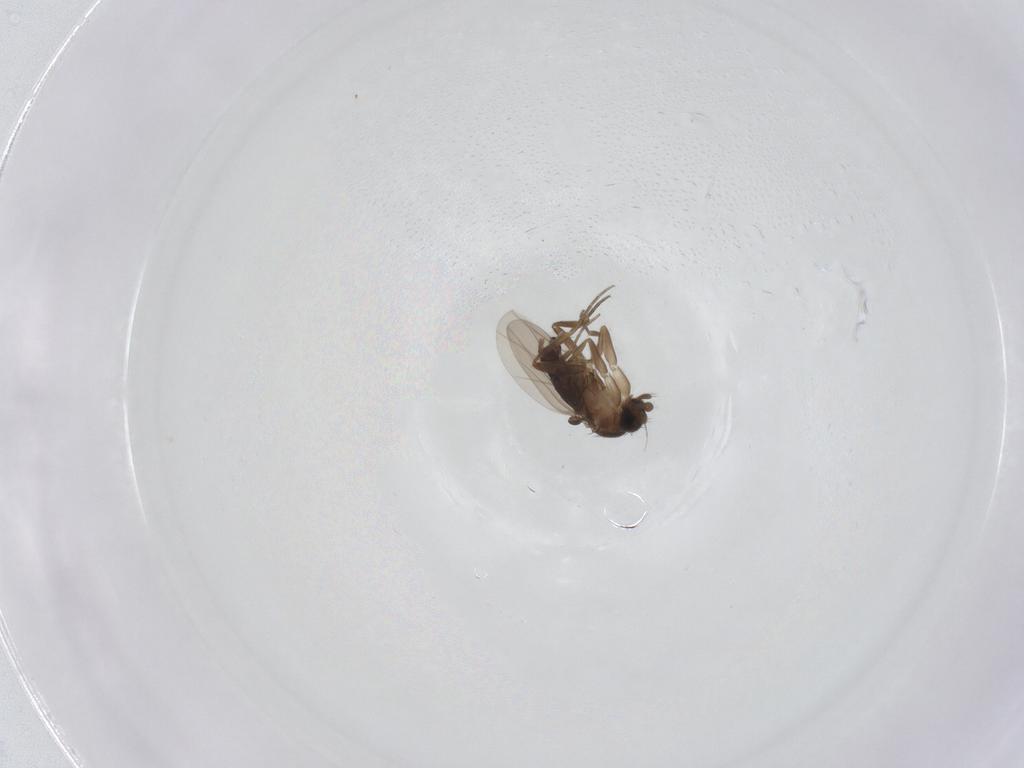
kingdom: Animalia
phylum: Arthropoda
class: Insecta
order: Diptera
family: Phoridae
